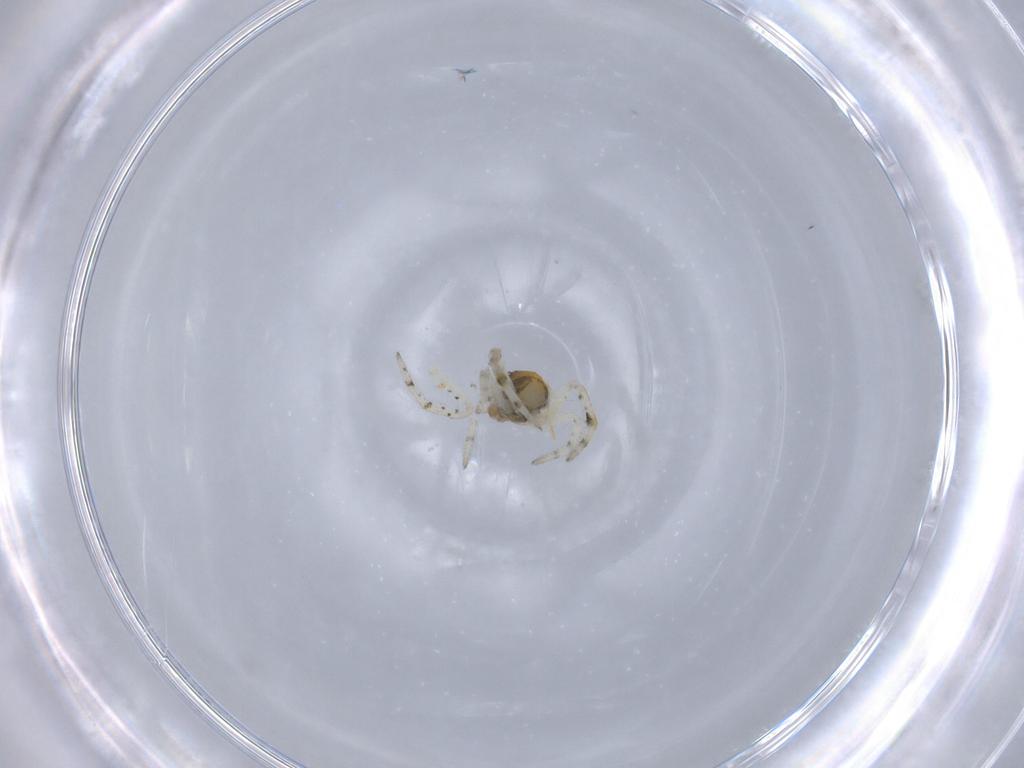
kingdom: Animalia
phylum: Arthropoda
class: Arachnida
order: Araneae
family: Theridiidae
